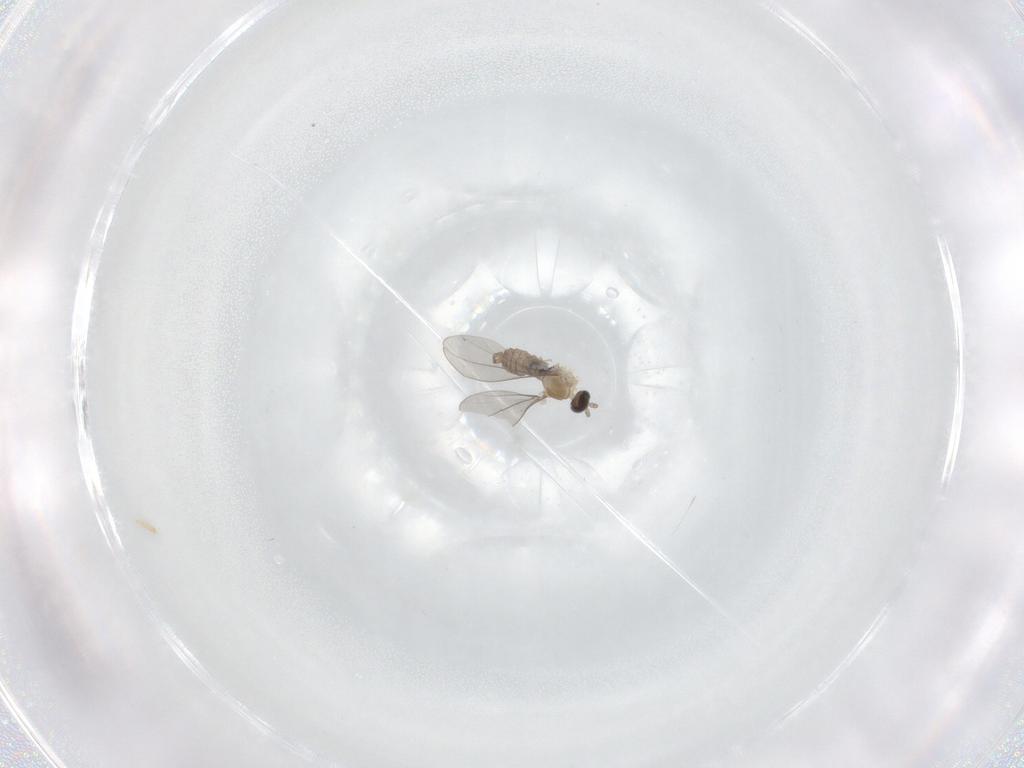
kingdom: Animalia
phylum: Arthropoda
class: Insecta
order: Diptera
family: Cecidomyiidae
